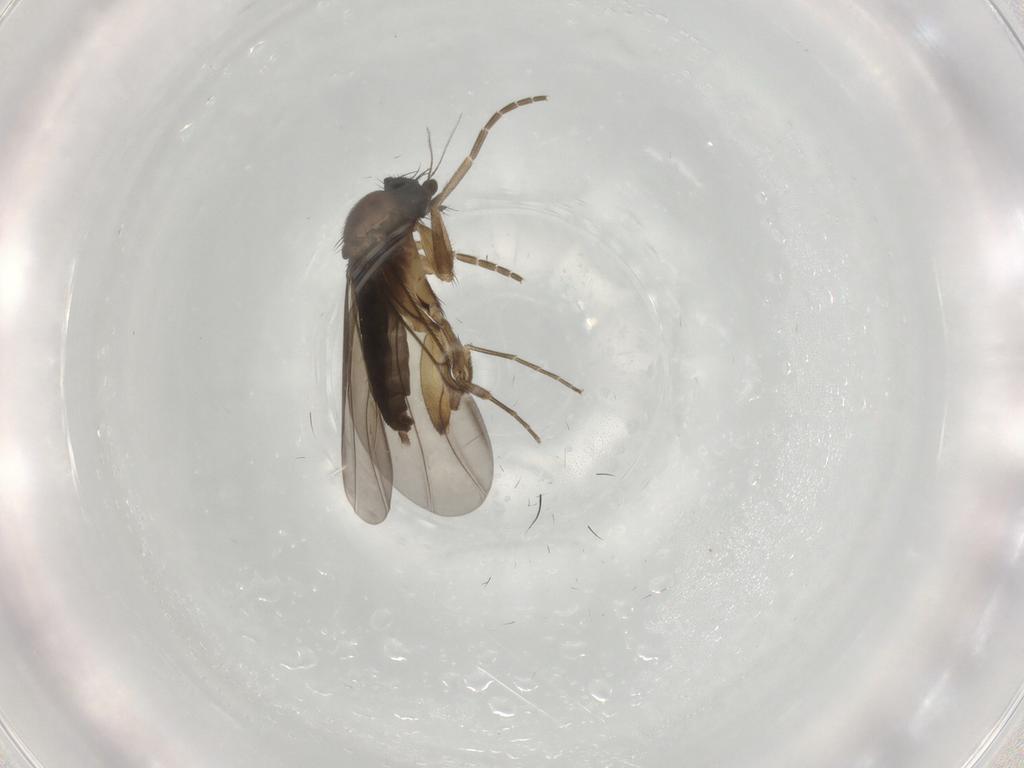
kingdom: Animalia
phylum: Arthropoda
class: Insecta
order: Diptera
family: Phoridae
